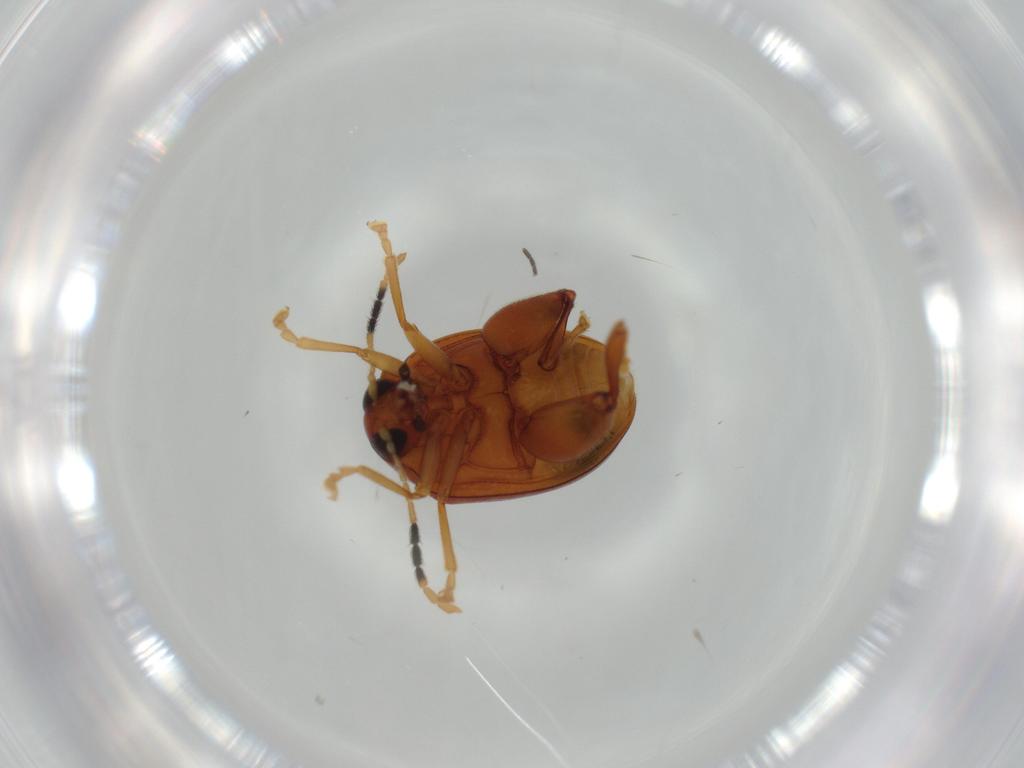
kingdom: Animalia
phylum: Arthropoda
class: Insecta
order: Coleoptera
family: Chrysomelidae
